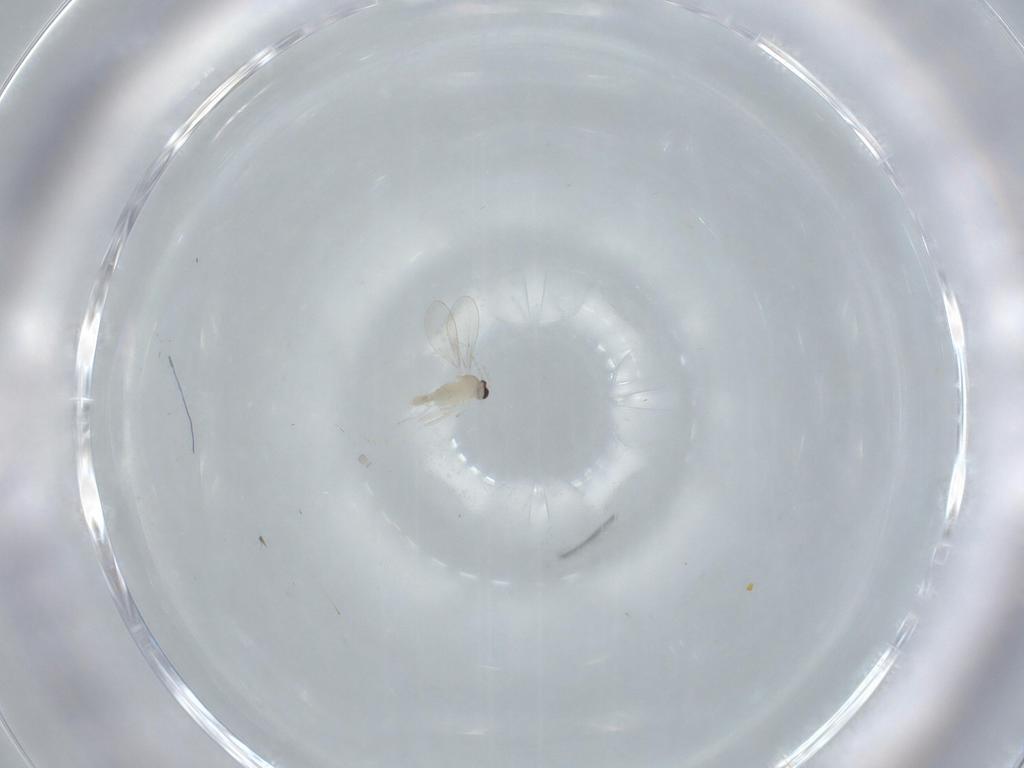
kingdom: Animalia
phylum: Arthropoda
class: Insecta
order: Diptera
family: Cecidomyiidae
